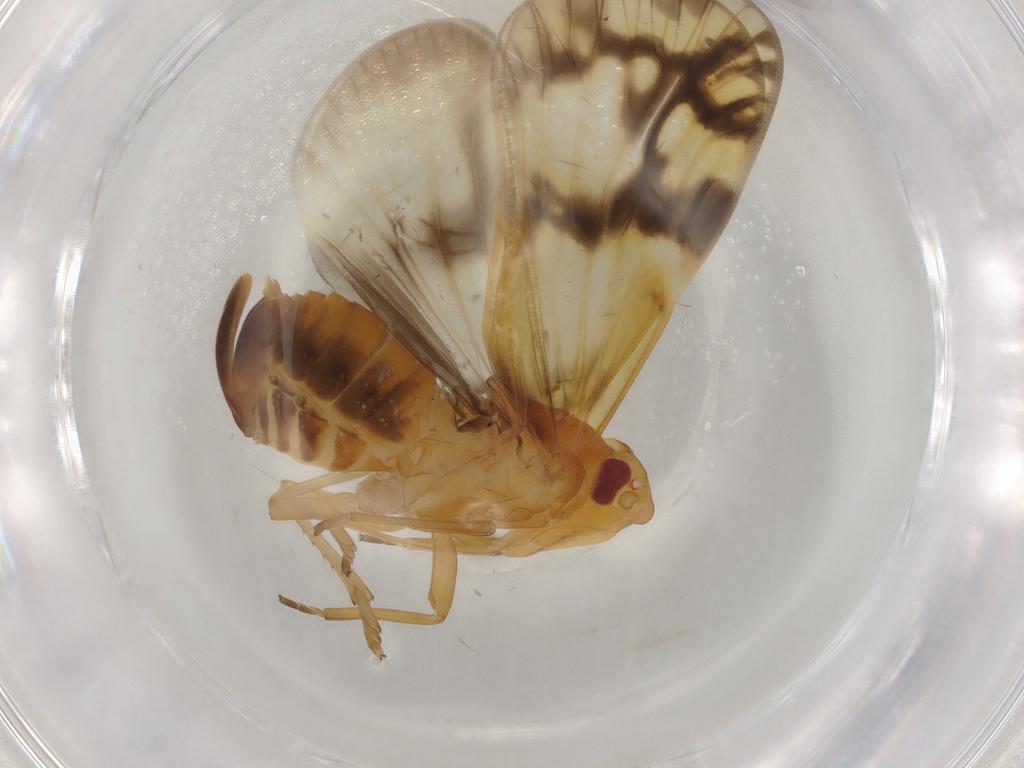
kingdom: Animalia
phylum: Arthropoda
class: Insecta
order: Hemiptera
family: Cixiidae
